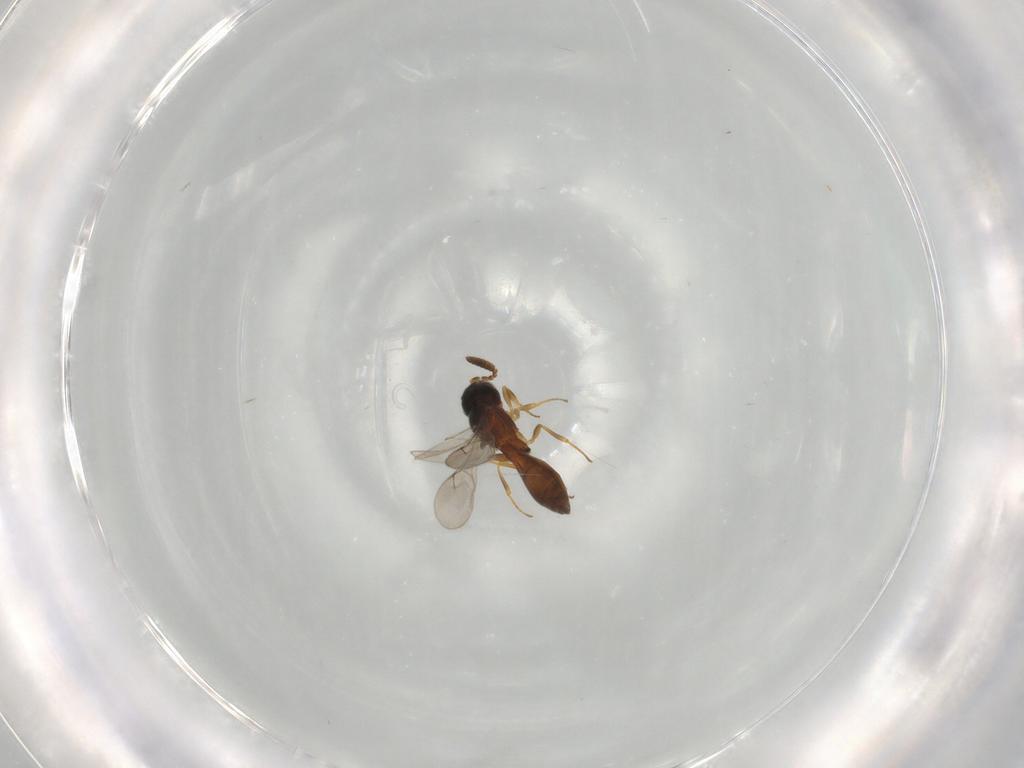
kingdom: Animalia
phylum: Arthropoda
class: Insecta
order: Hymenoptera
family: Scelionidae
